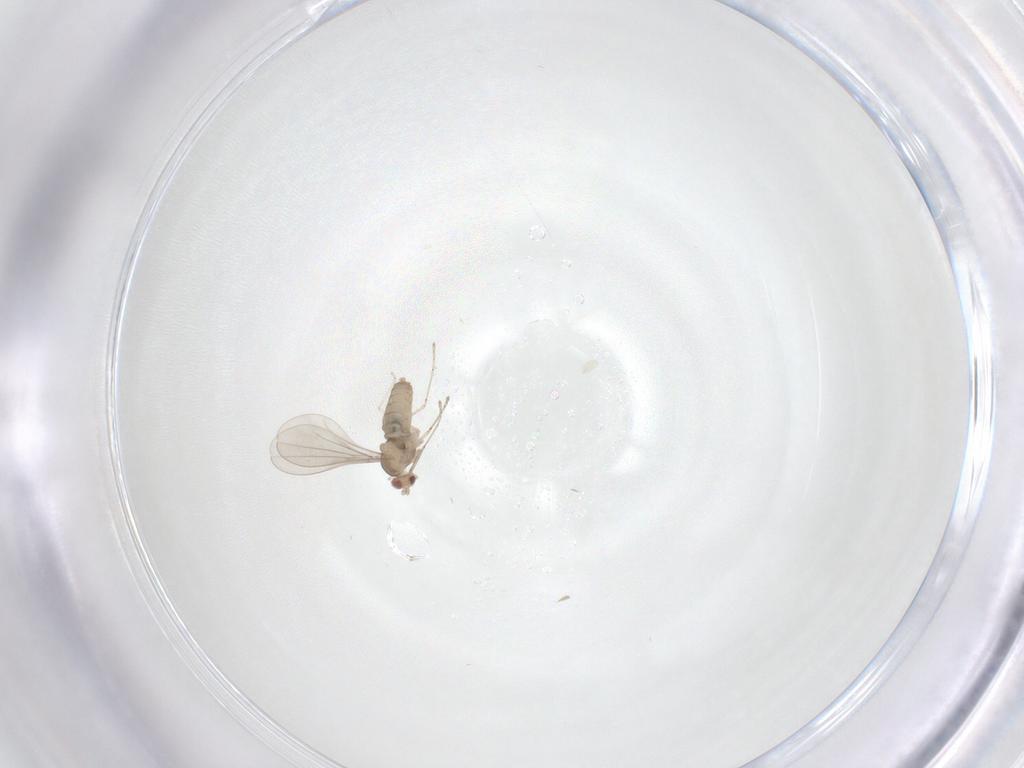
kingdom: Animalia
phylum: Arthropoda
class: Insecta
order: Diptera
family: Cecidomyiidae
